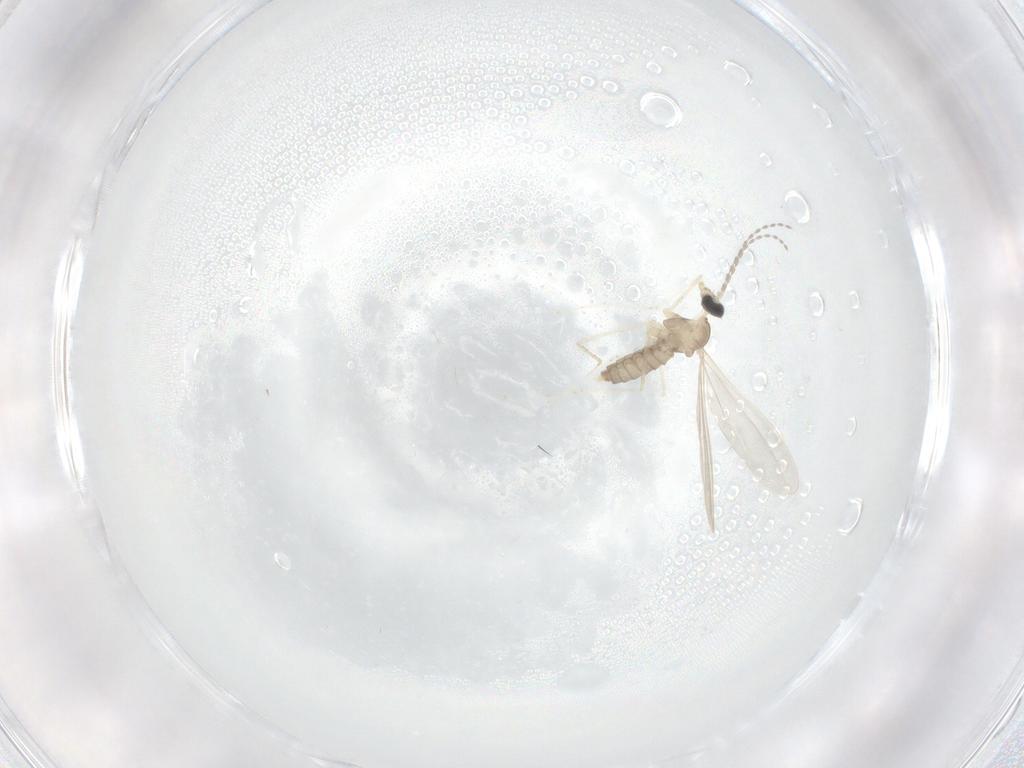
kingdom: Animalia
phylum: Arthropoda
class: Insecta
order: Diptera
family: Cecidomyiidae
